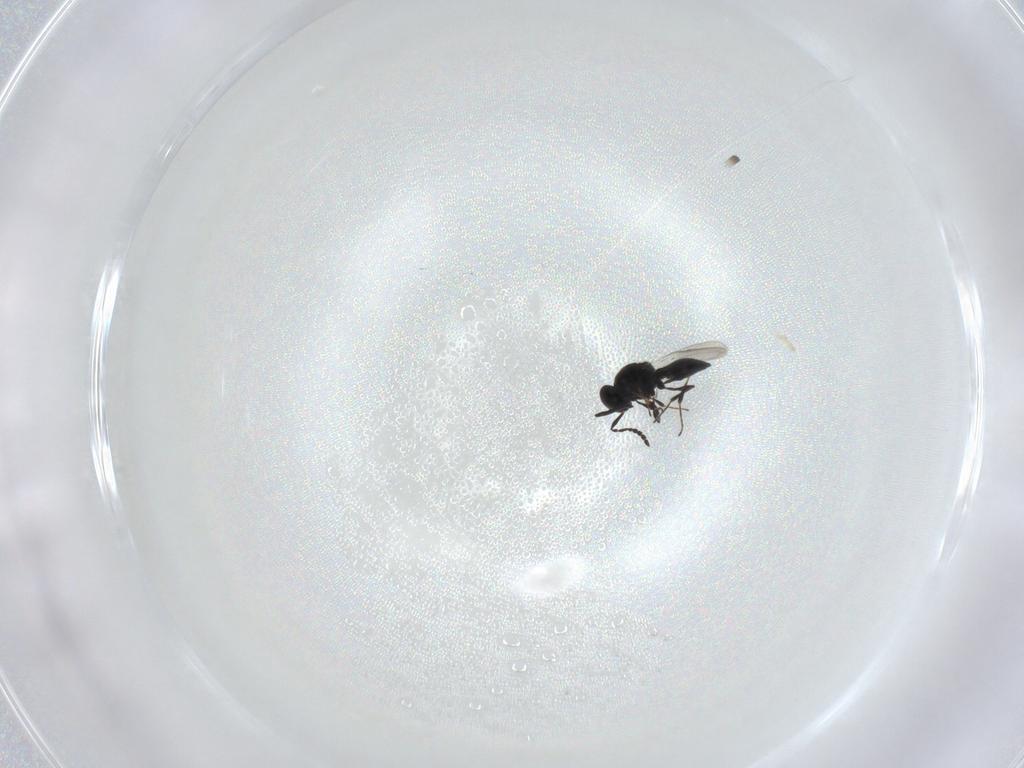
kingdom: Animalia
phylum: Arthropoda
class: Insecta
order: Hymenoptera
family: Platygastridae
